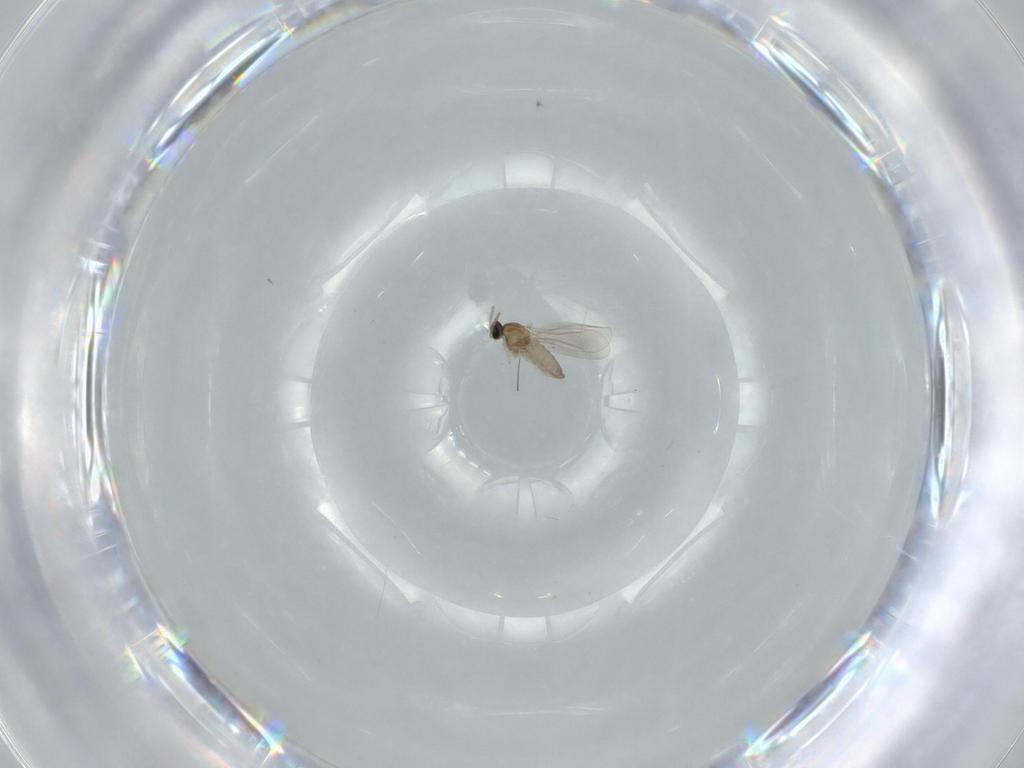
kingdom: Animalia
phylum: Arthropoda
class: Insecta
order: Diptera
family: Cecidomyiidae
